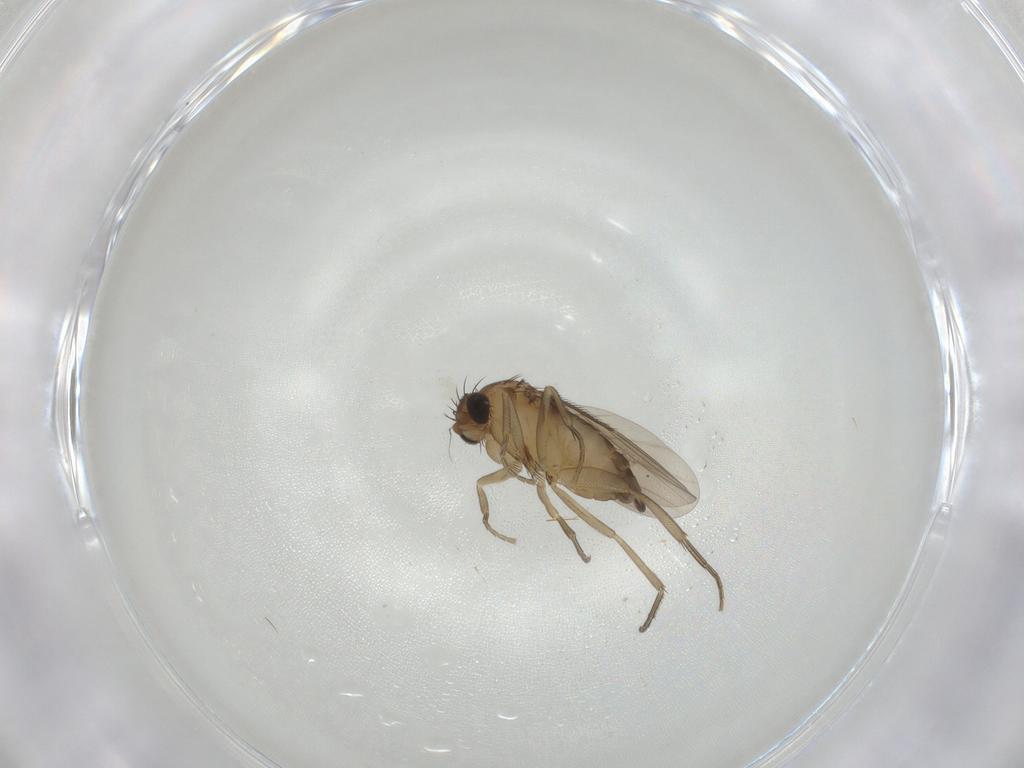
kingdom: Animalia
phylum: Arthropoda
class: Insecta
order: Diptera
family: Phoridae
